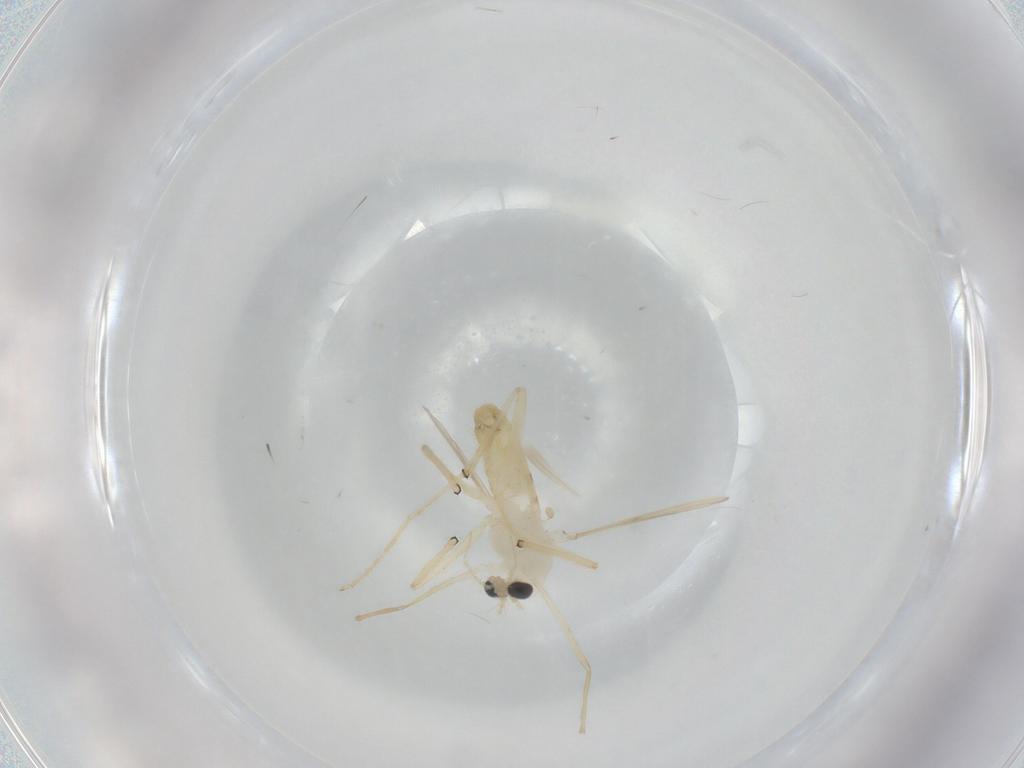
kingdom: Animalia
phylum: Arthropoda
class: Insecta
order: Diptera
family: Chironomidae
